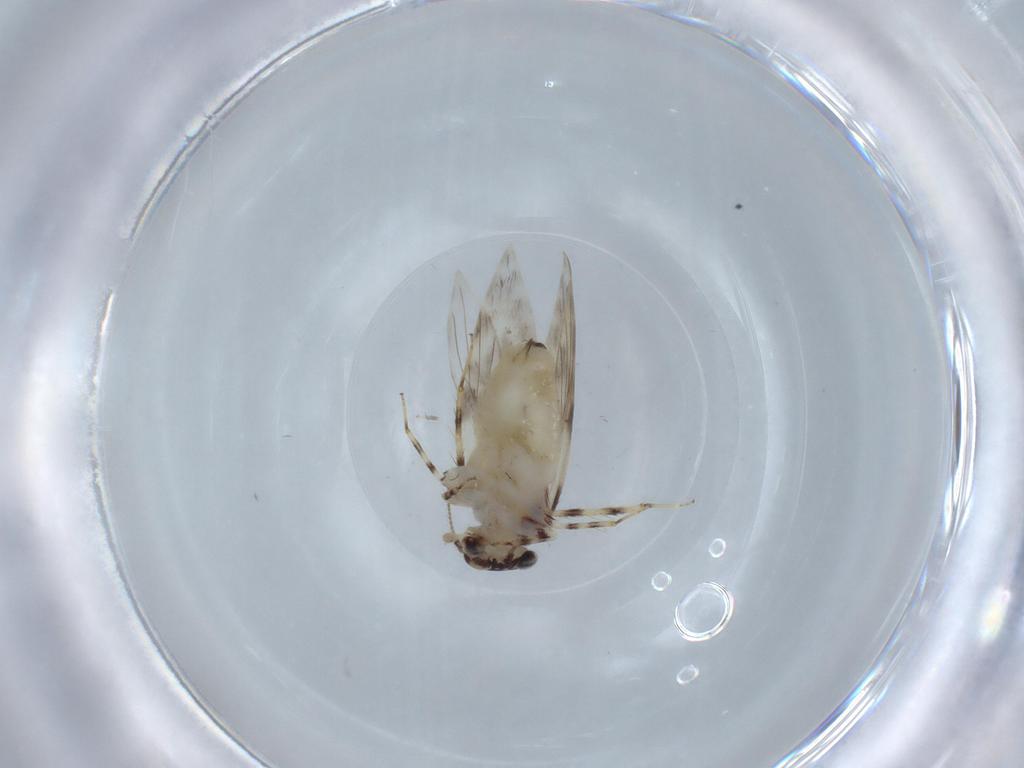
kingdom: Animalia
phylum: Arthropoda
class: Insecta
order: Psocodea
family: Lepidopsocidae
